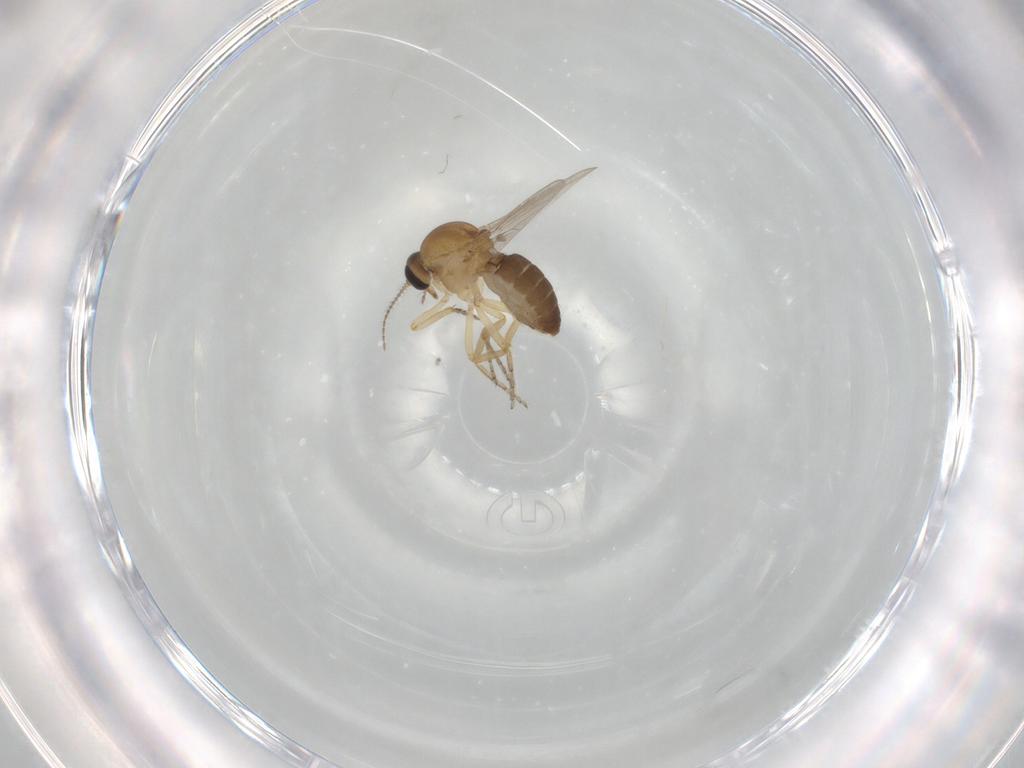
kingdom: Animalia
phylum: Arthropoda
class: Insecta
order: Diptera
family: Ceratopogonidae
